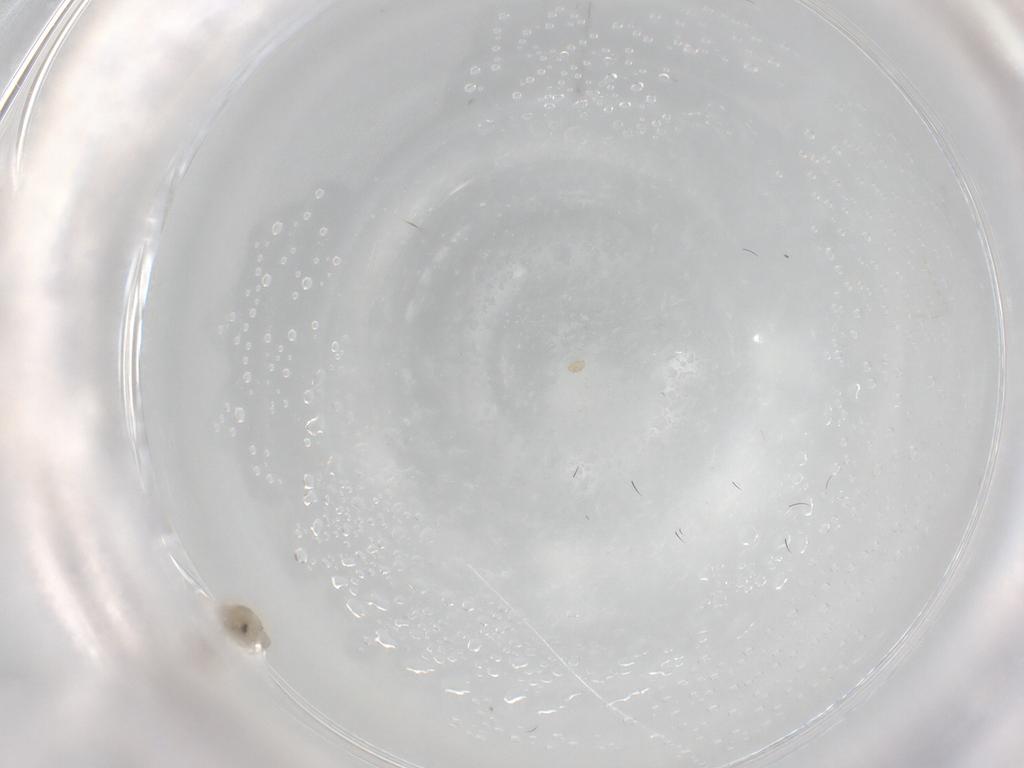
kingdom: Animalia
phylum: Arthropoda
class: Insecta
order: Hemiptera
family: Aleyrodidae
